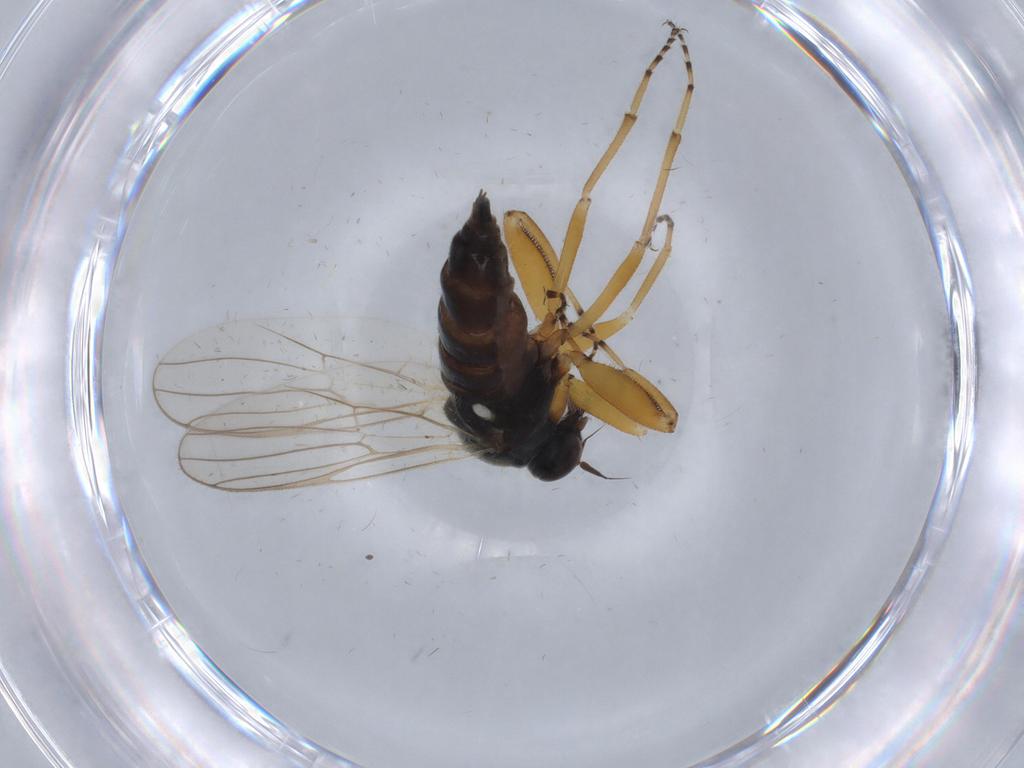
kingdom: Animalia
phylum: Arthropoda
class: Insecta
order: Diptera
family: Hybotidae
